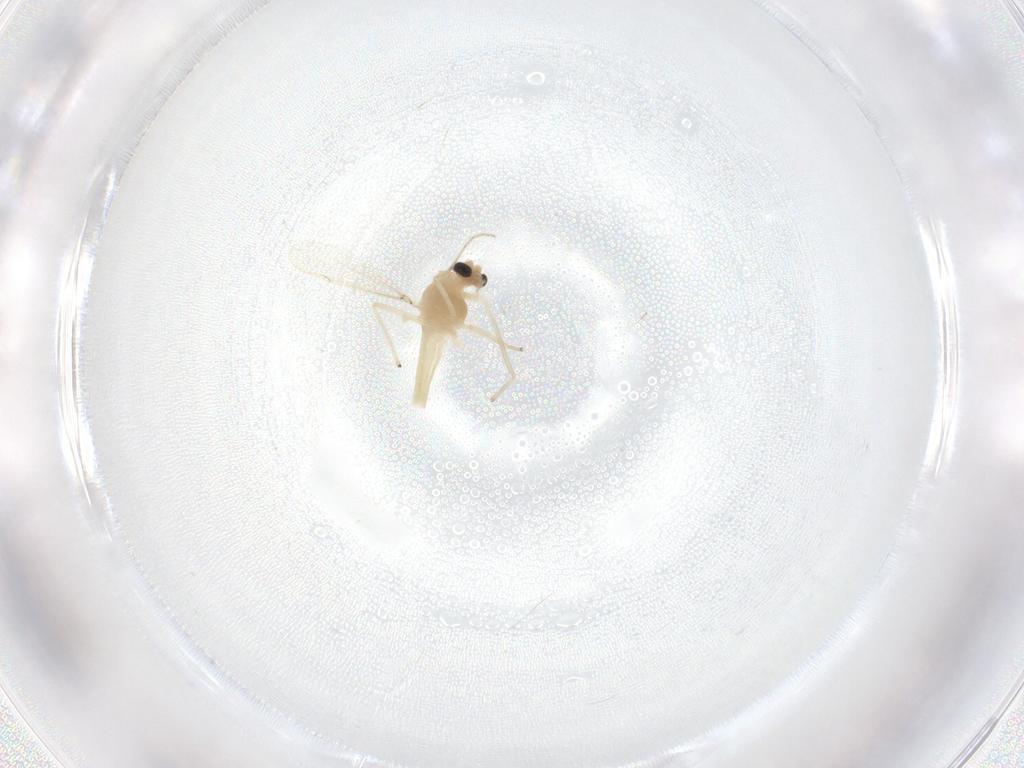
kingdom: Animalia
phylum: Arthropoda
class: Insecta
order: Diptera
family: Chironomidae
